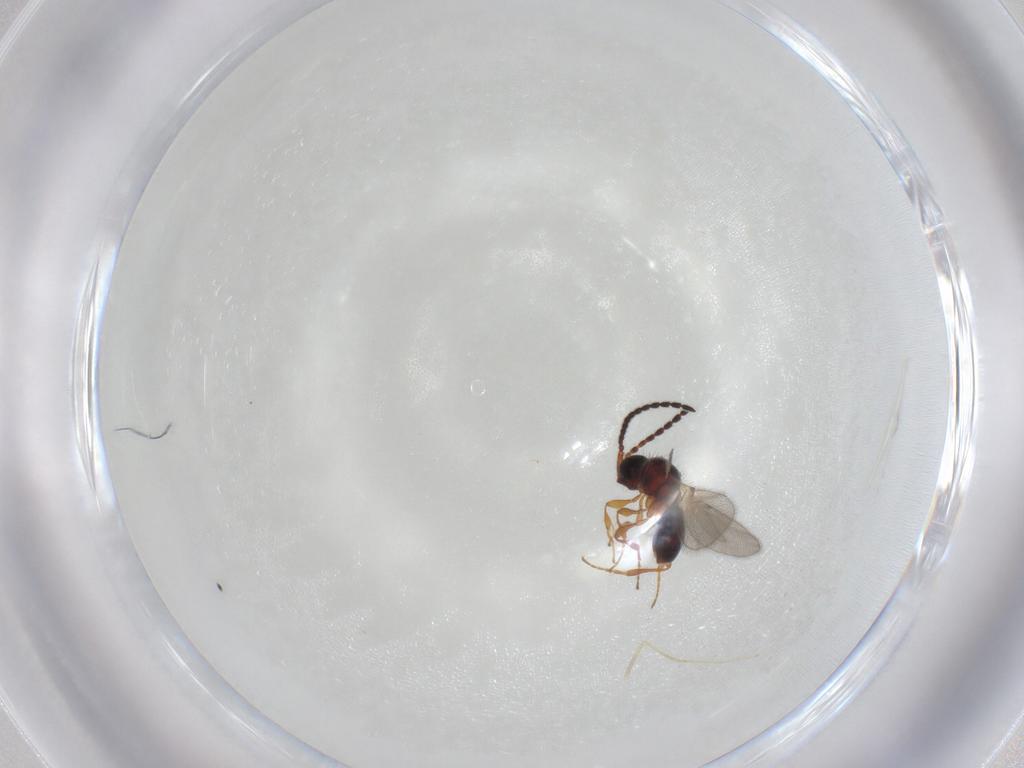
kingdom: Animalia
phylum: Arthropoda
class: Insecta
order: Hymenoptera
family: Diapriidae
